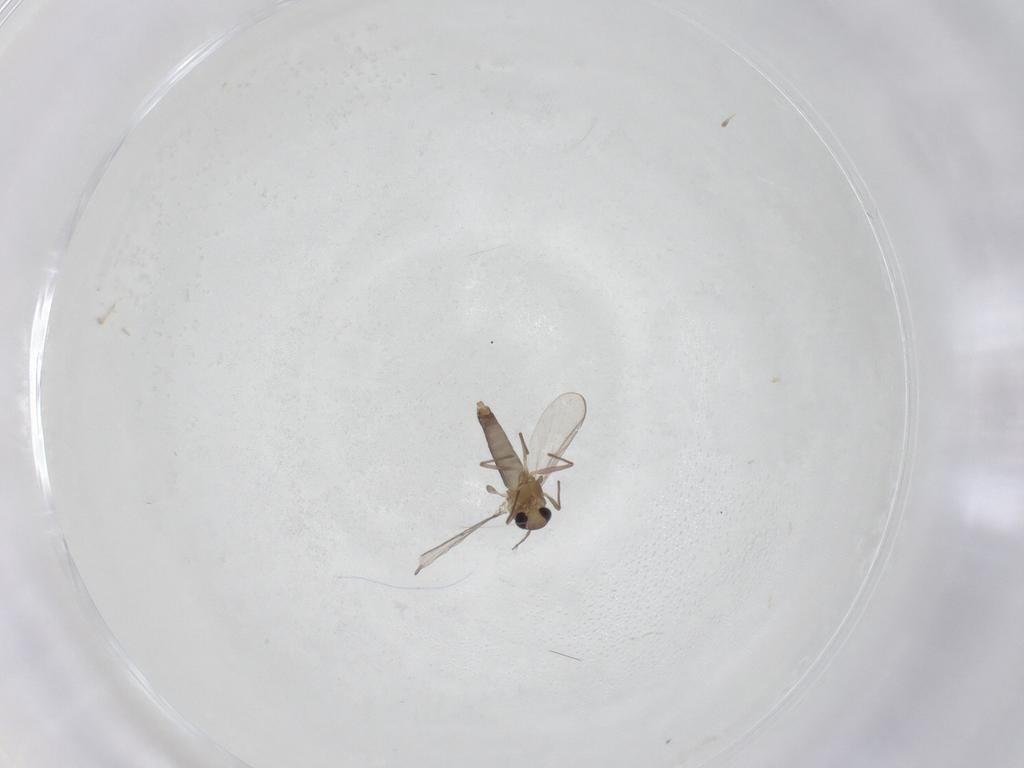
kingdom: Animalia
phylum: Arthropoda
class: Insecta
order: Diptera
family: Chironomidae
